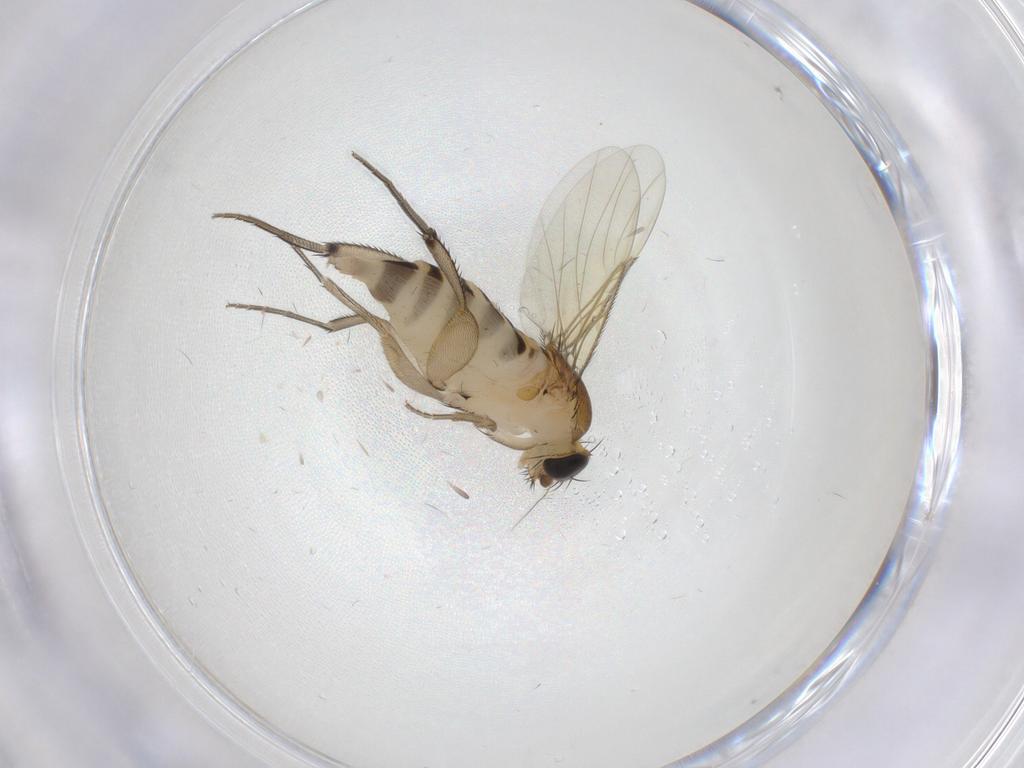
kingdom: Animalia
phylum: Arthropoda
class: Insecta
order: Diptera
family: Phoridae
